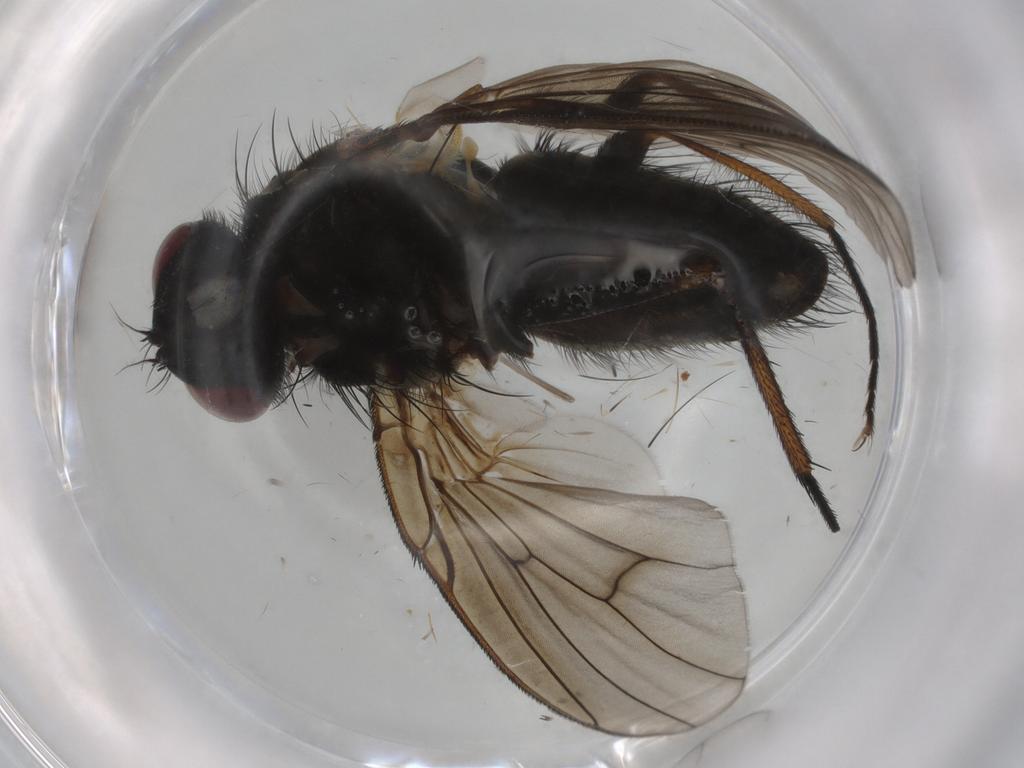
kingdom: Animalia
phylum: Arthropoda
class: Insecta
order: Diptera
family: Muscidae
